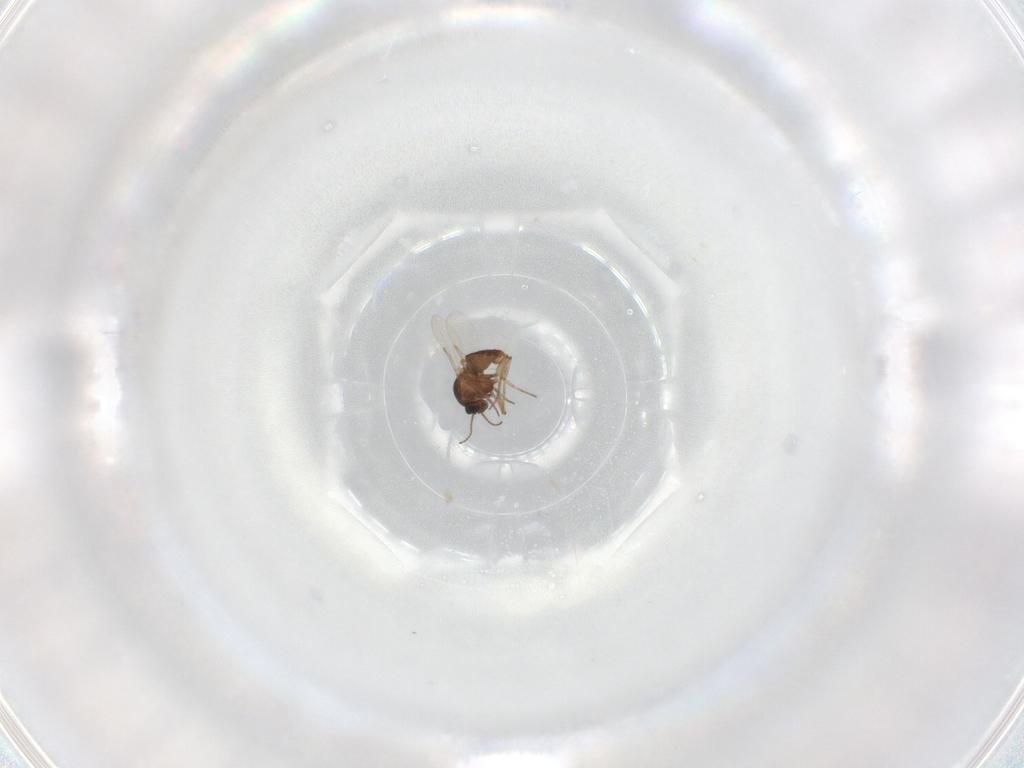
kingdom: Animalia
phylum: Arthropoda
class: Insecta
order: Diptera
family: Ceratopogonidae
